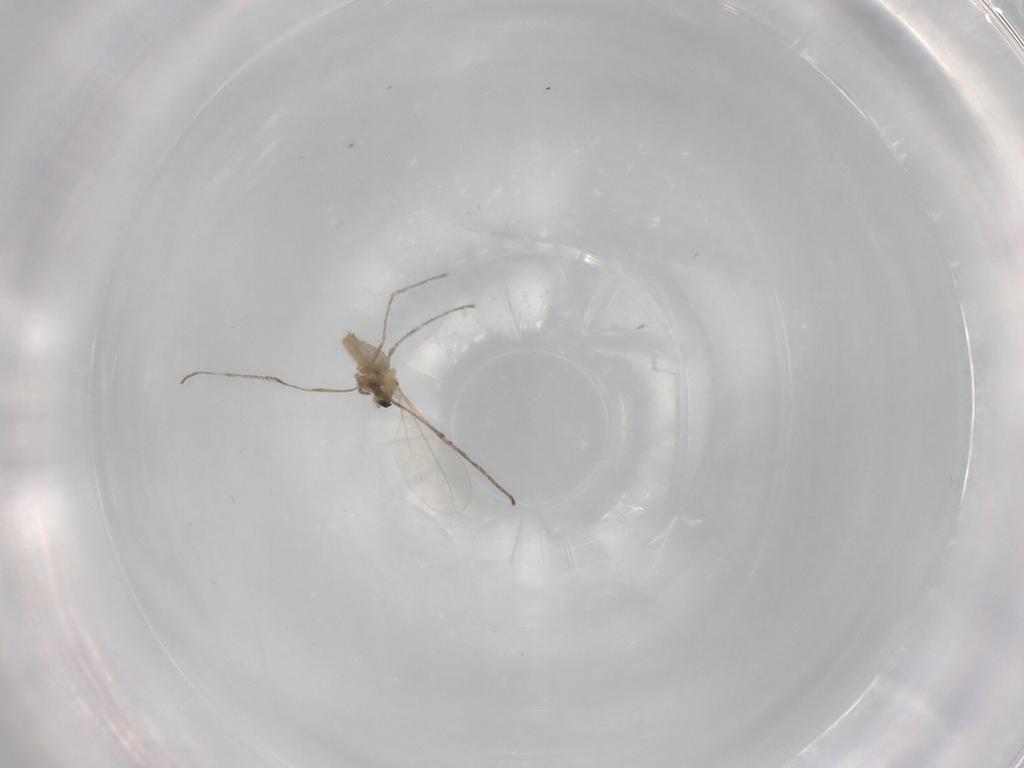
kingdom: Animalia
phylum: Arthropoda
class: Insecta
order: Diptera
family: Cecidomyiidae
